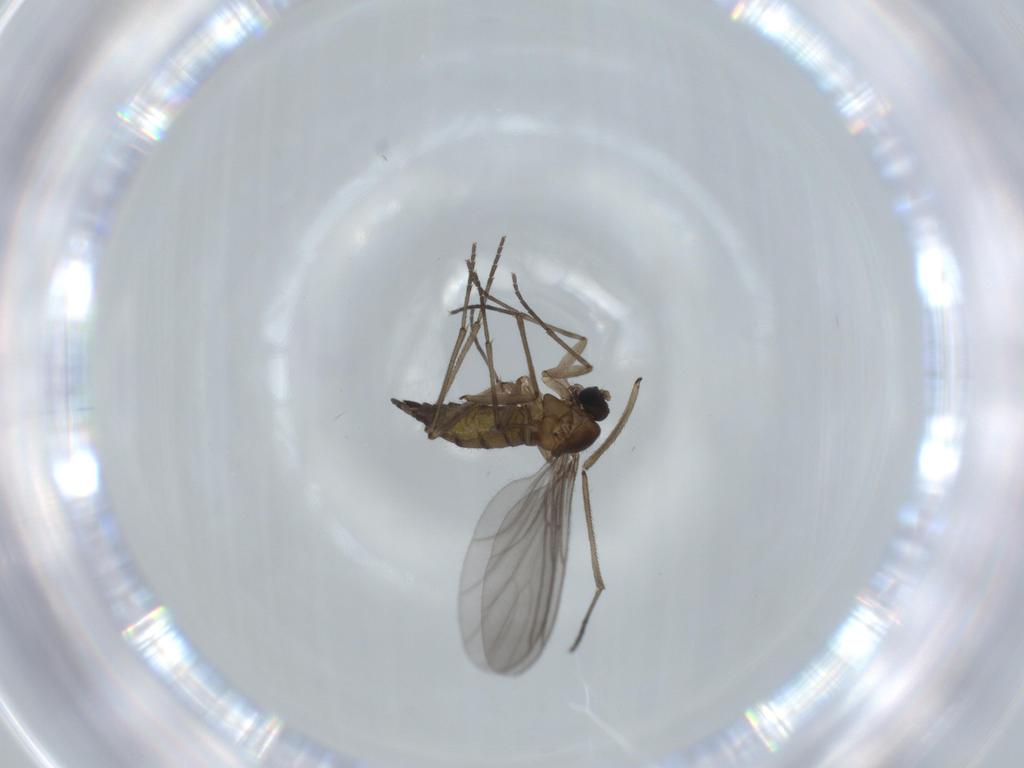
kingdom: Animalia
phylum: Arthropoda
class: Insecta
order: Diptera
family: Sciaridae
